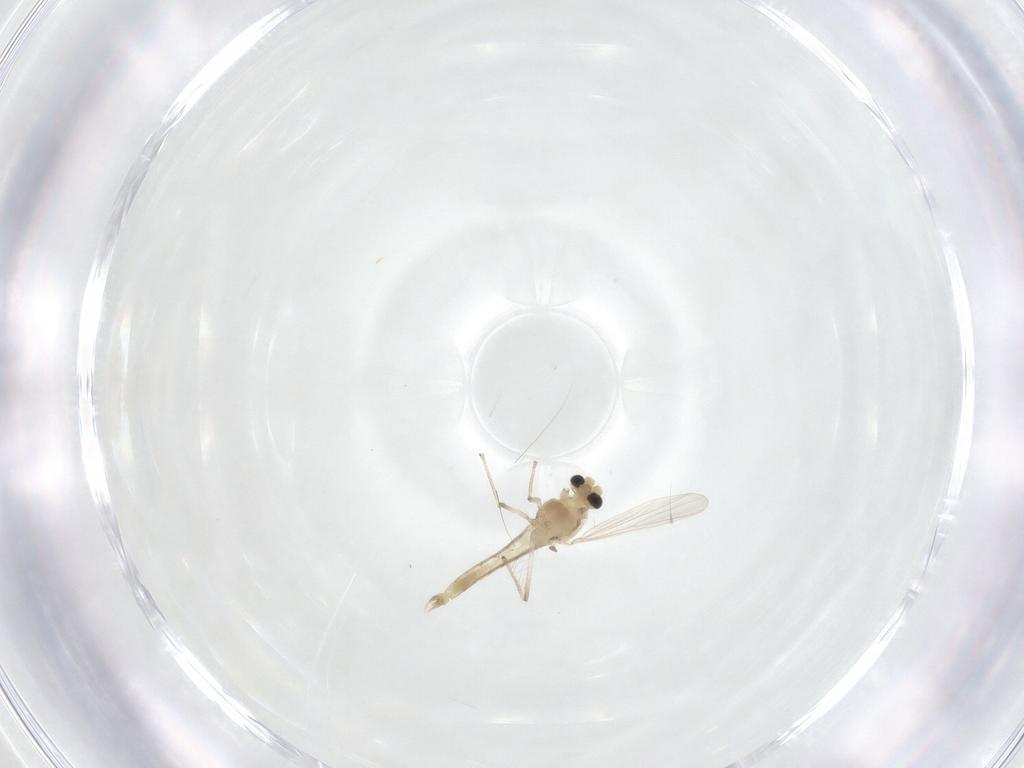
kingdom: Animalia
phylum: Arthropoda
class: Insecta
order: Diptera
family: Chironomidae
